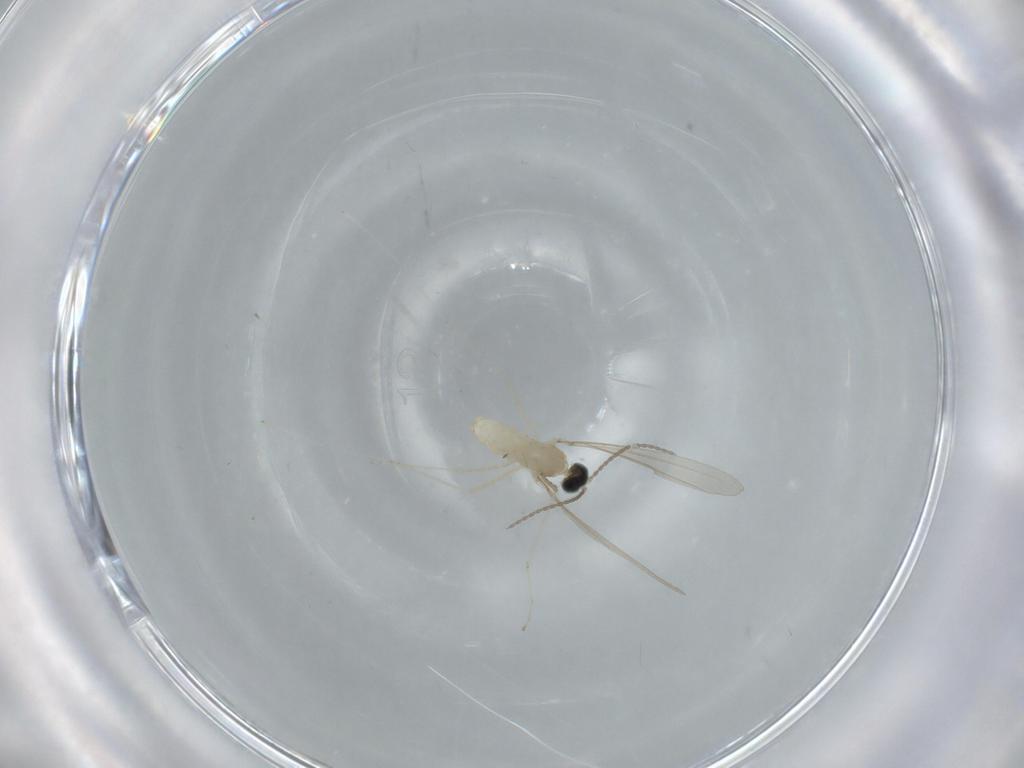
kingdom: Animalia
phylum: Arthropoda
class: Insecta
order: Diptera
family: Cecidomyiidae
